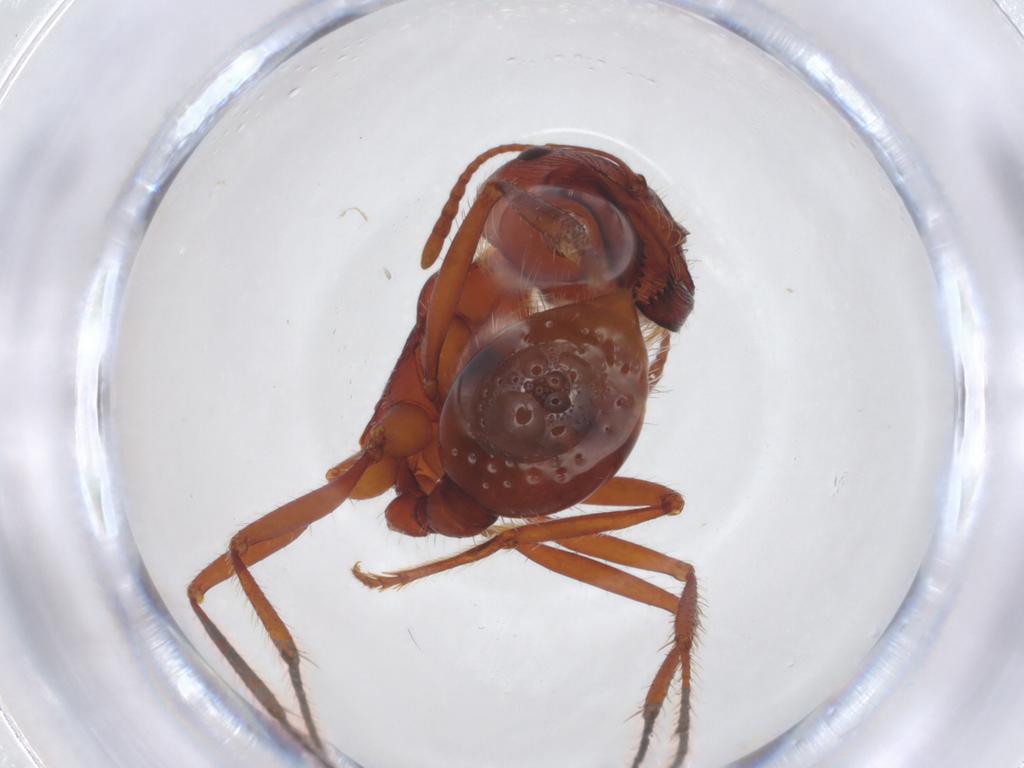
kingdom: Animalia
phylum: Arthropoda
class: Insecta
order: Hymenoptera
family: Formicidae
